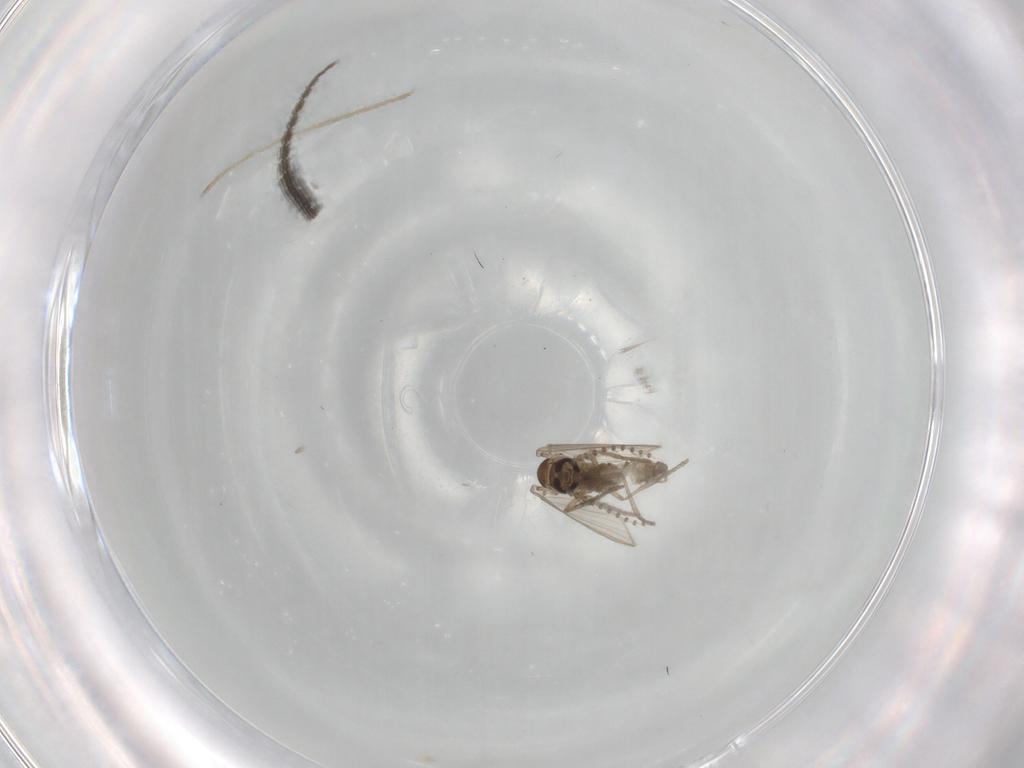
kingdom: Animalia
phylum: Arthropoda
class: Insecta
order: Diptera
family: Psychodidae
